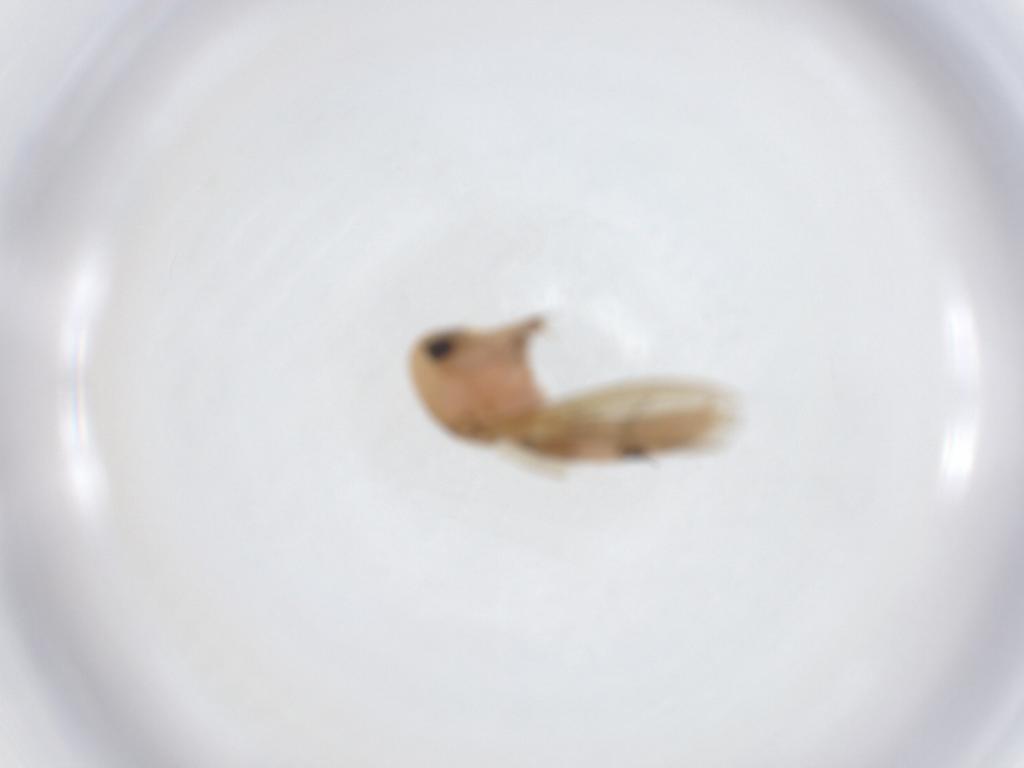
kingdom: Animalia
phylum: Arthropoda
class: Insecta
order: Diptera
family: Mycetophilidae
